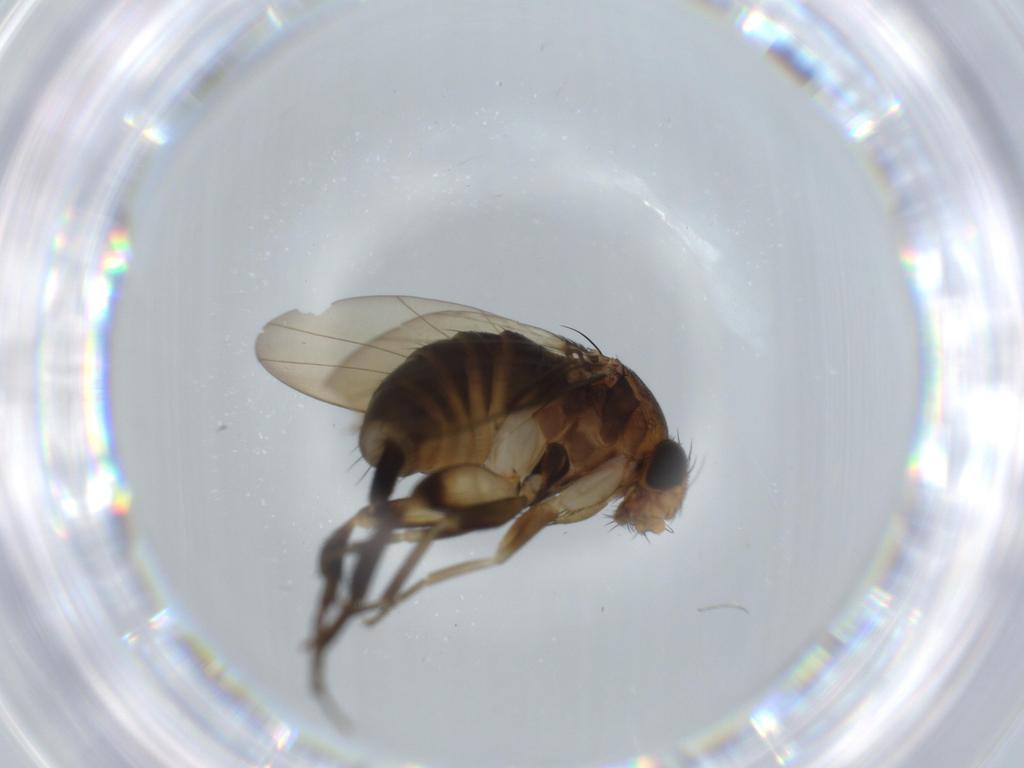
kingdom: Animalia
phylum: Arthropoda
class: Insecta
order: Diptera
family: Phoridae
